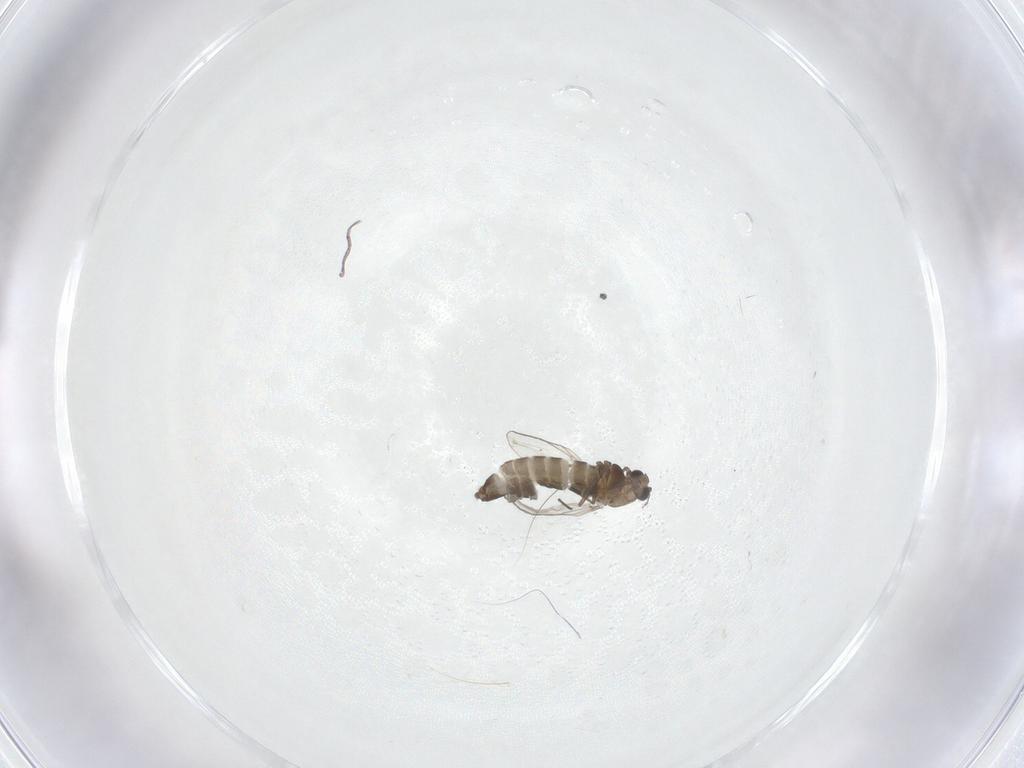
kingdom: Animalia
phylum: Arthropoda
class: Insecta
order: Diptera
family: Chironomidae
